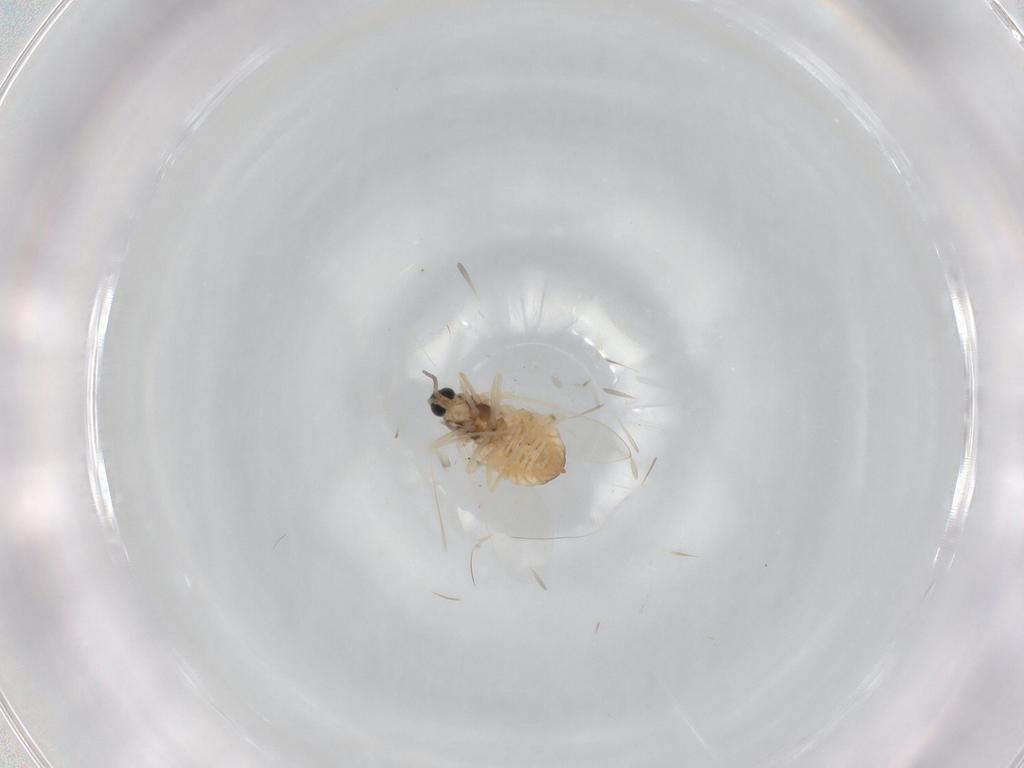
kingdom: Animalia
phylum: Arthropoda
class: Insecta
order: Diptera
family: Cecidomyiidae
